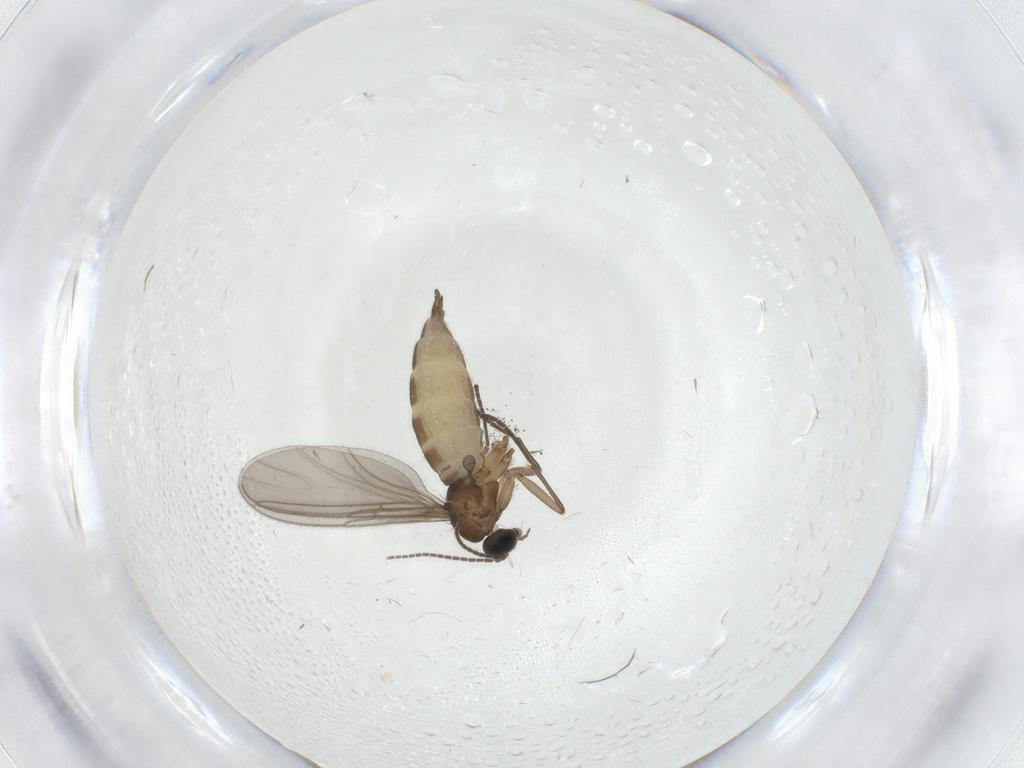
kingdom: Animalia
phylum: Arthropoda
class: Insecta
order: Diptera
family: Sciaridae
